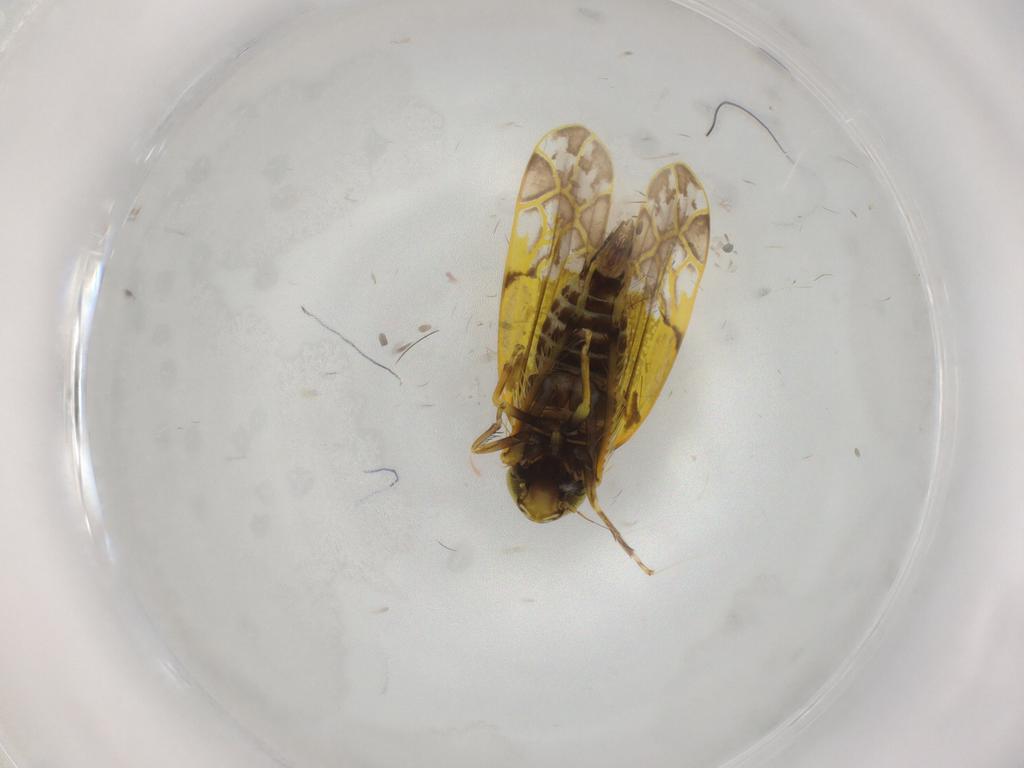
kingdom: Animalia
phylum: Arthropoda
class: Insecta
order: Hemiptera
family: Cicadellidae
